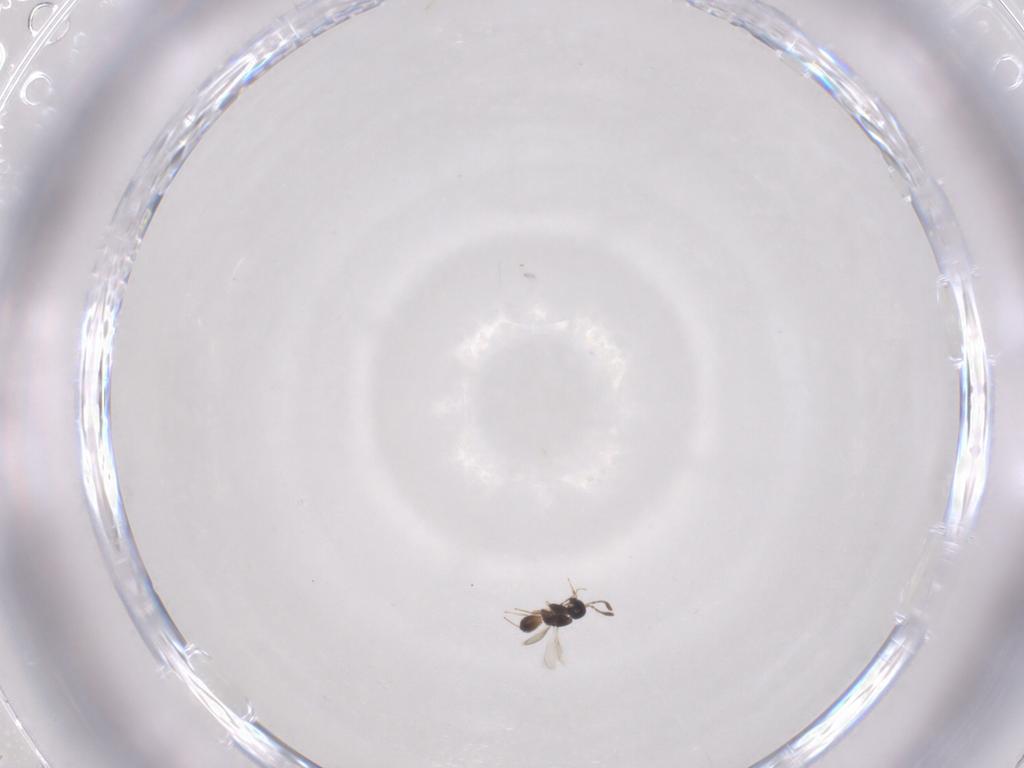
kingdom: Animalia
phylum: Arthropoda
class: Insecta
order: Hymenoptera
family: Scelionidae
